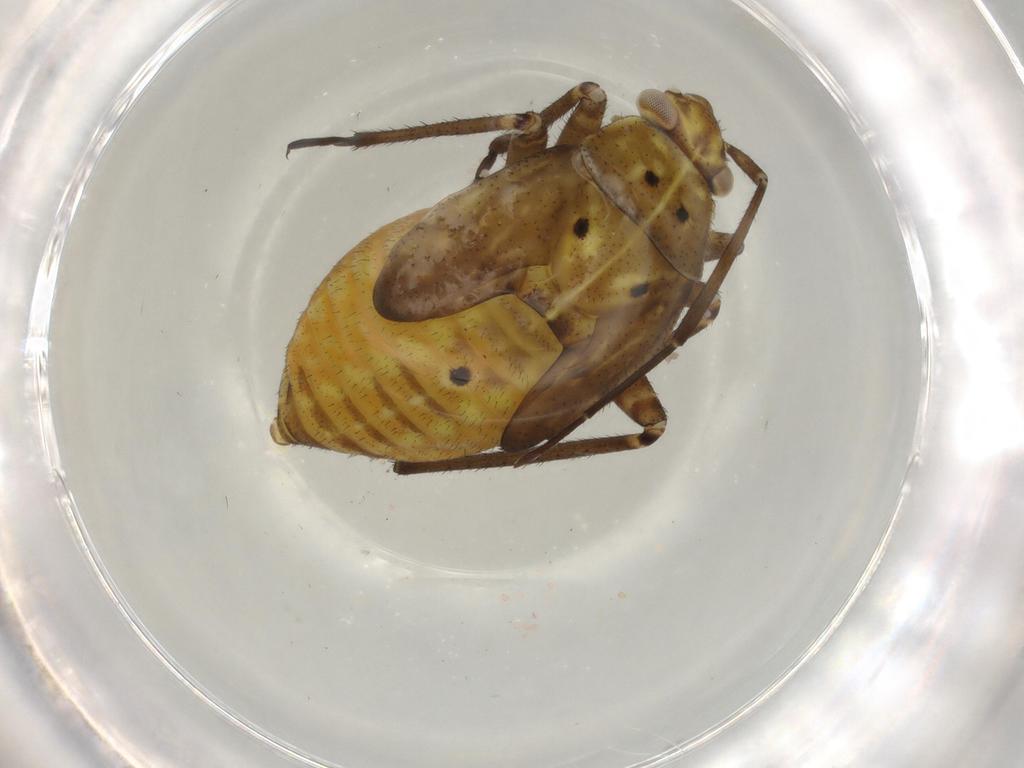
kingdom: Animalia
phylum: Arthropoda
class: Insecta
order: Hemiptera
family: Miridae
